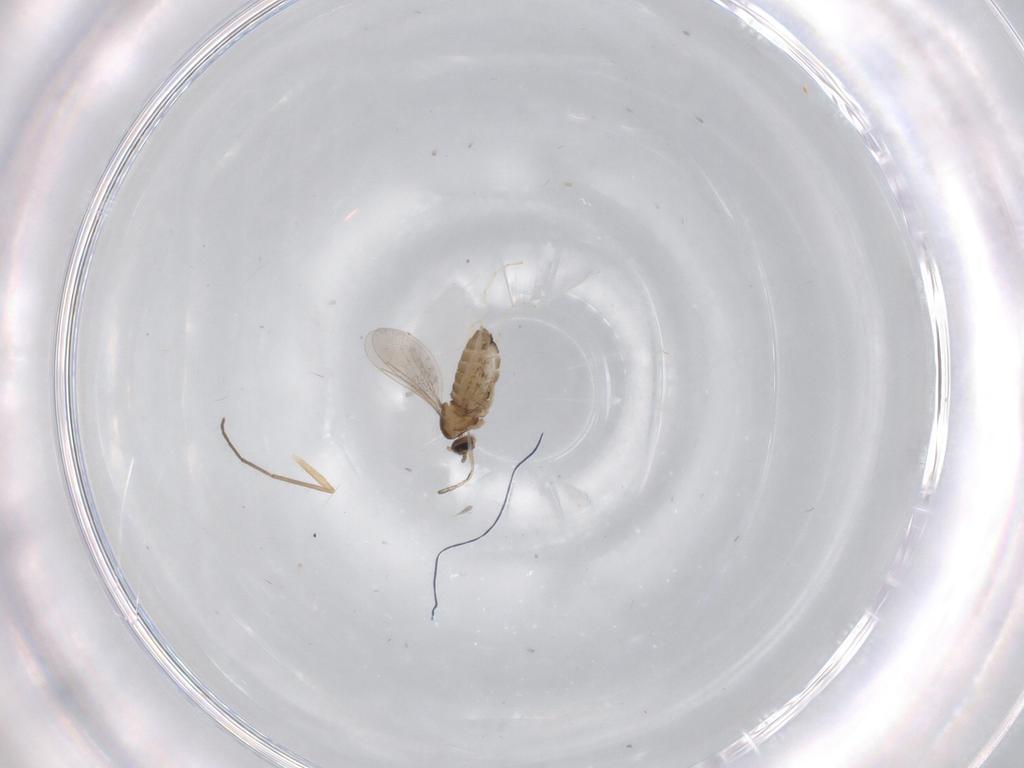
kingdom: Animalia
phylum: Arthropoda
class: Insecta
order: Diptera
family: Cecidomyiidae
